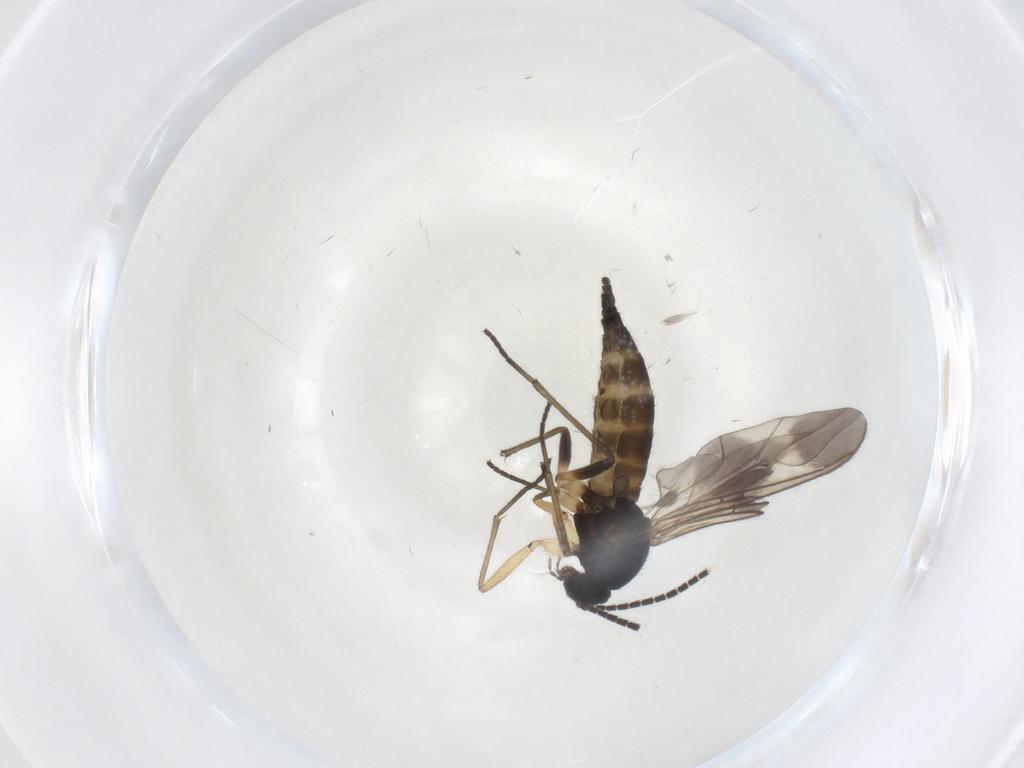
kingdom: Animalia
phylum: Arthropoda
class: Insecta
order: Diptera
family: Sciaridae
